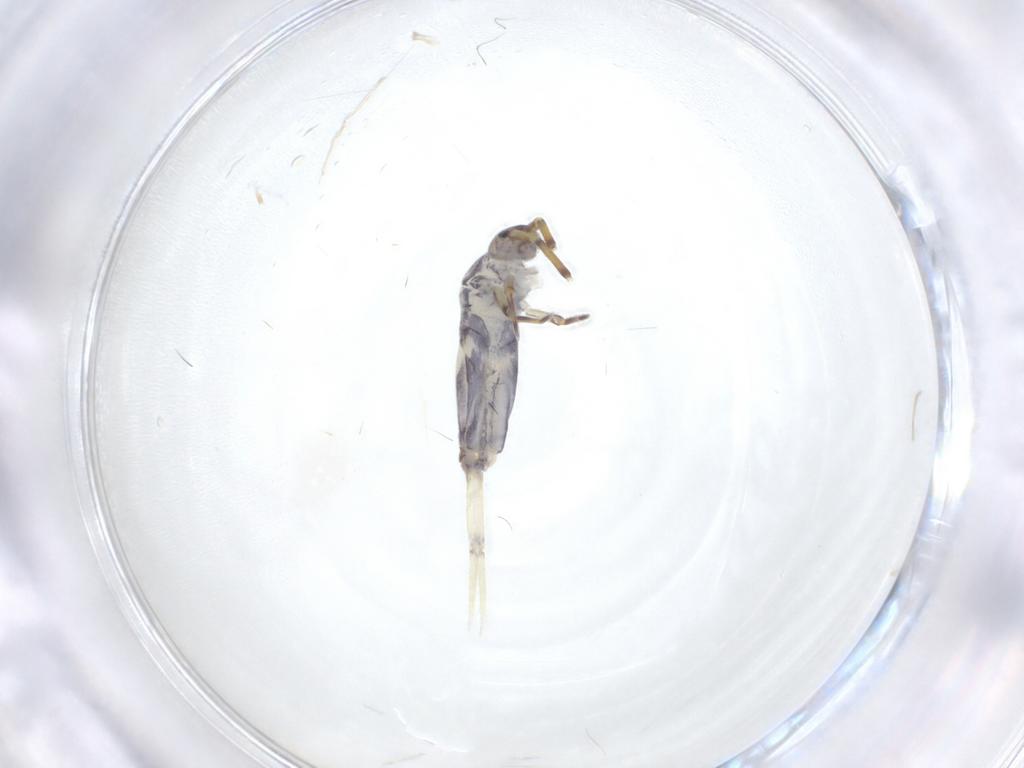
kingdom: Animalia
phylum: Arthropoda
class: Collembola
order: Entomobryomorpha
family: Entomobryidae
